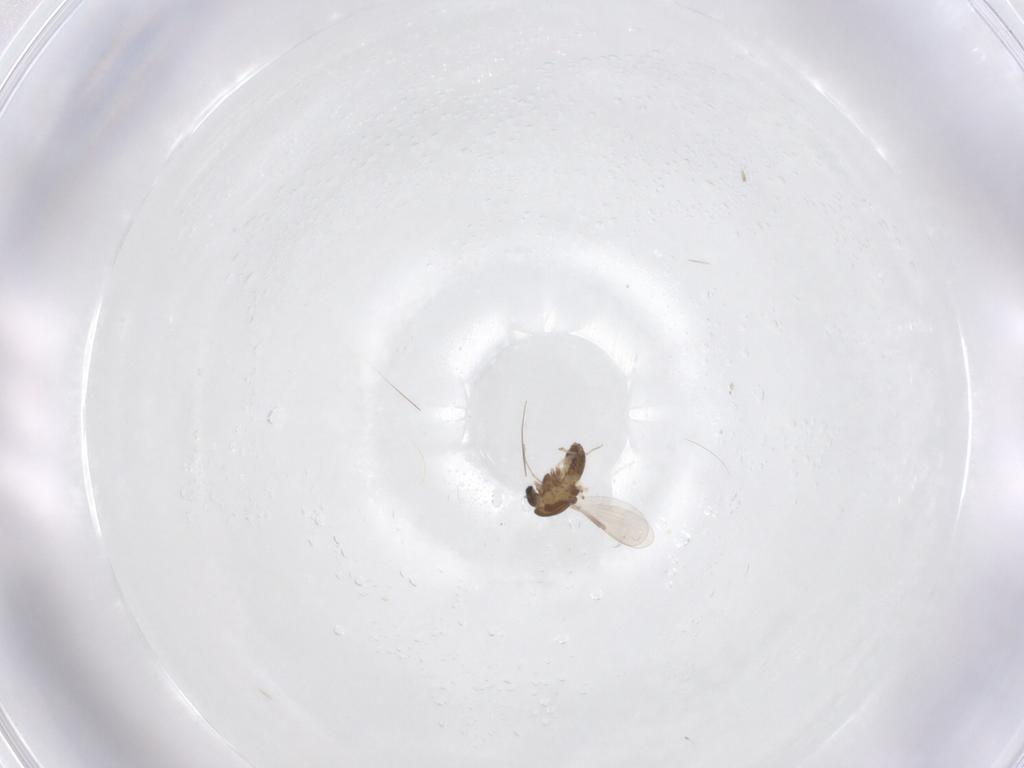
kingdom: Animalia
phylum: Arthropoda
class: Insecta
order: Diptera
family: Chironomidae
